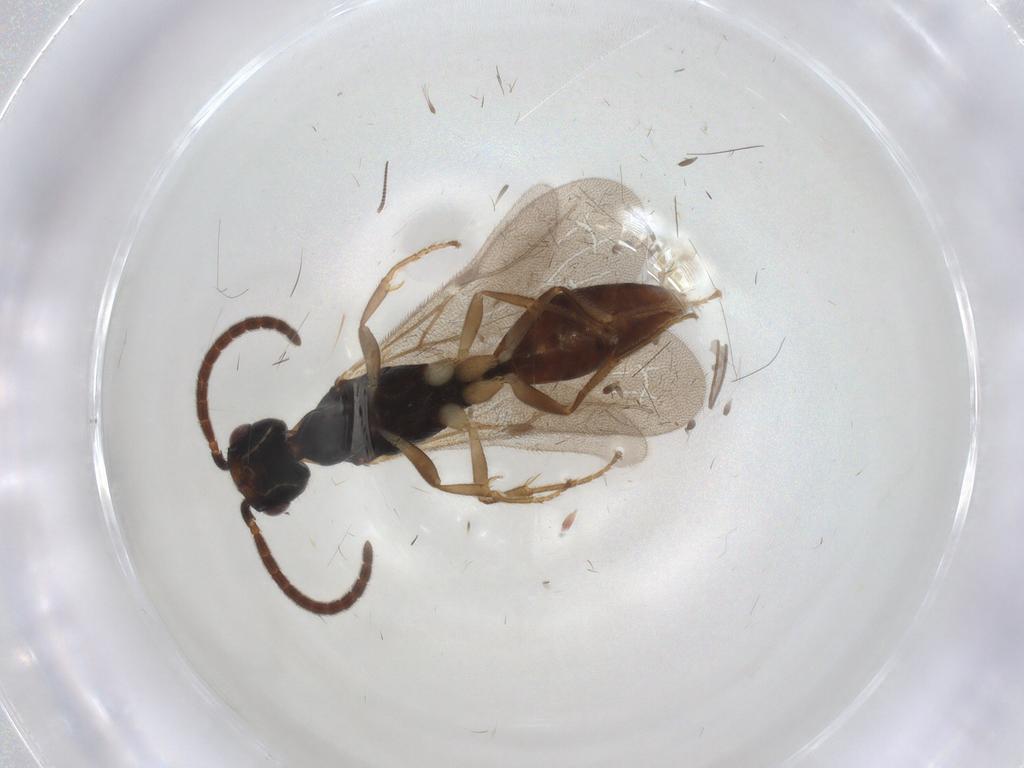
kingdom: Animalia
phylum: Arthropoda
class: Insecta
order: Hymenoptera
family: Bethylidae
